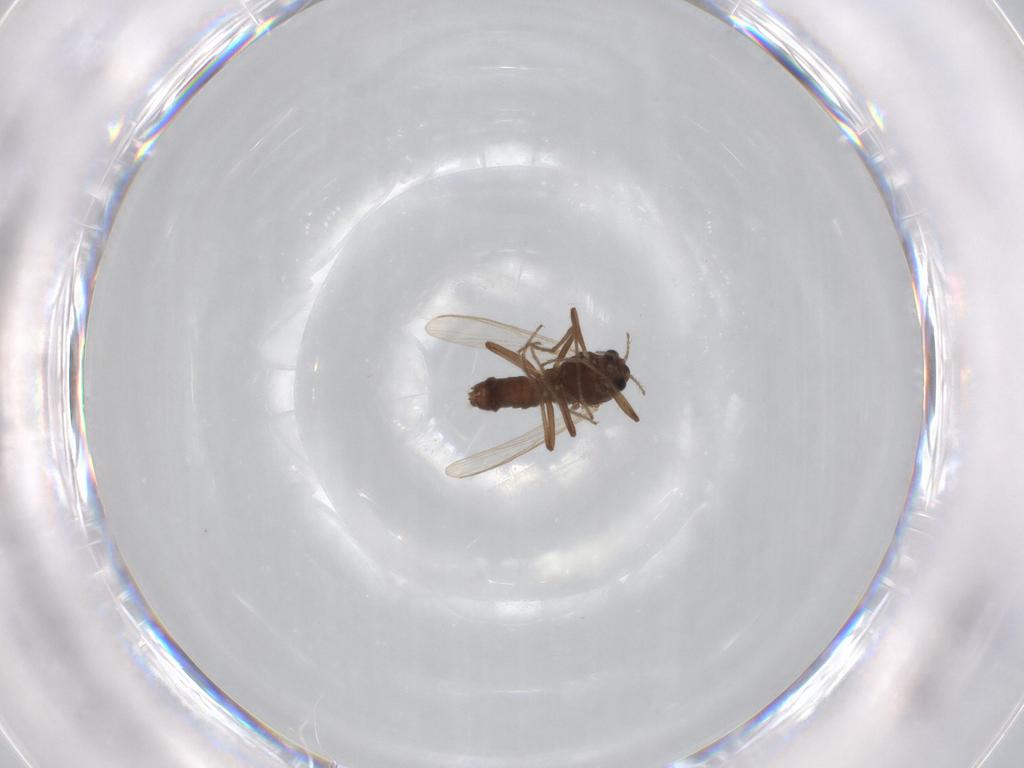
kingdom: Animalia
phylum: Arthropoda
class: Insecta
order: Diptera
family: Chironomidae
